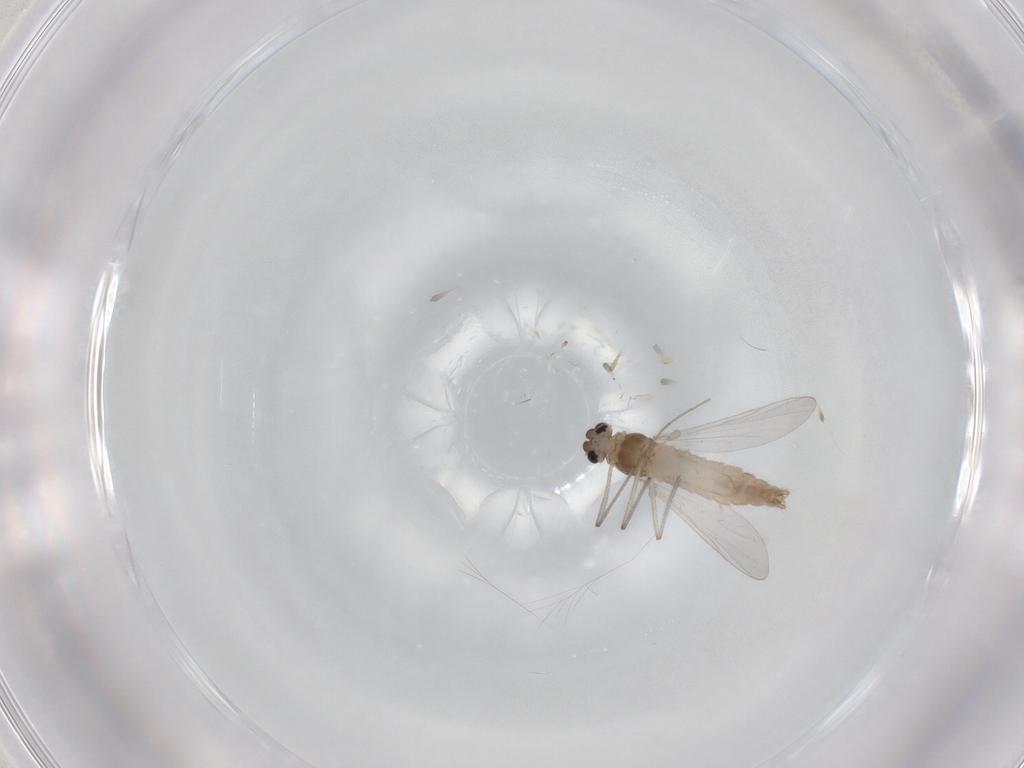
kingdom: Animalia
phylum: Arthropoda
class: Insecta
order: Diptera
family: Chironomidae
